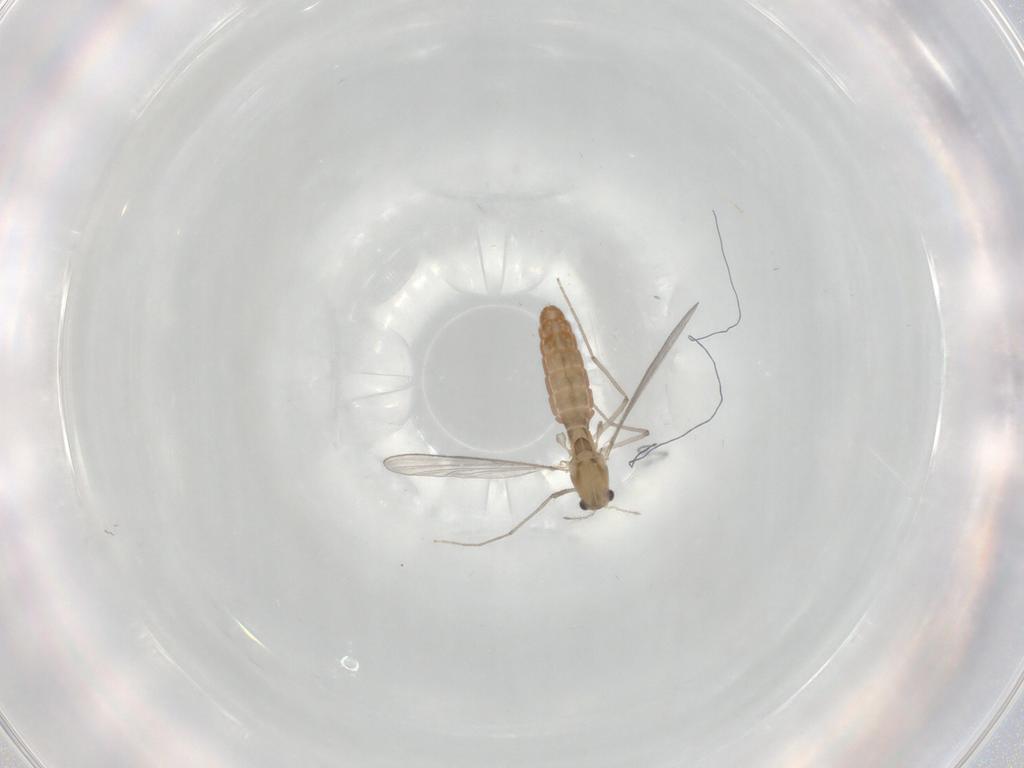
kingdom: Animalia
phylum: Arthropoda
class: Insecta
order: Diptera
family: Chironomidae
